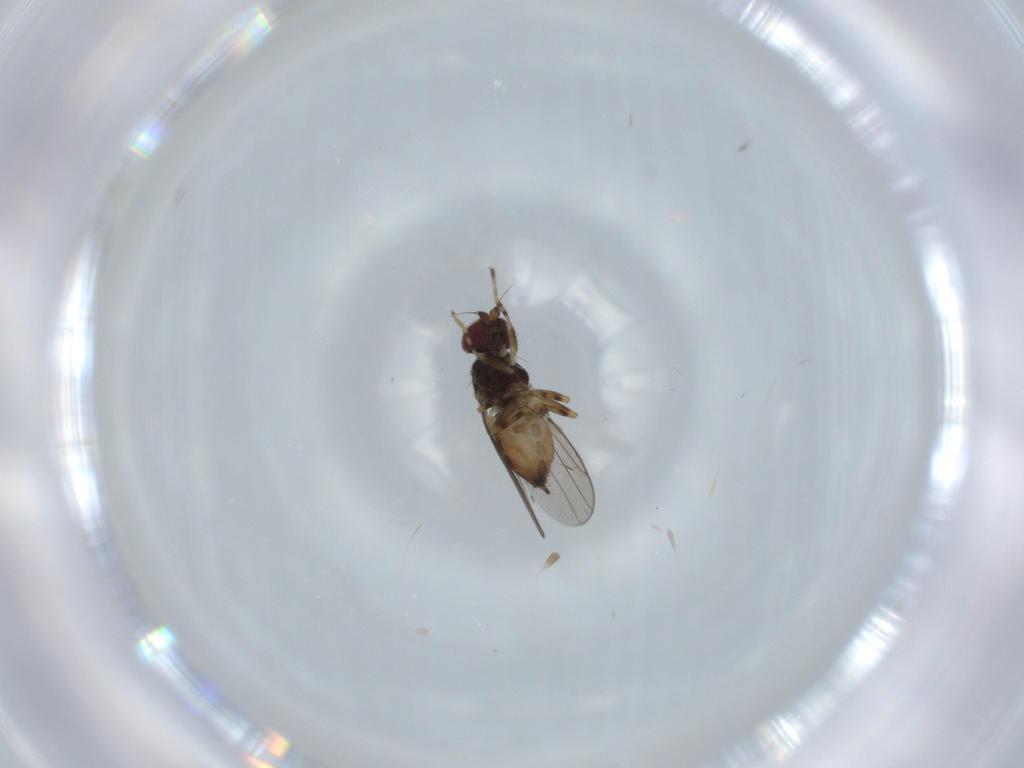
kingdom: Animalia
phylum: Arthropoda
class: Insecta
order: Diptera
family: Chloropidae
